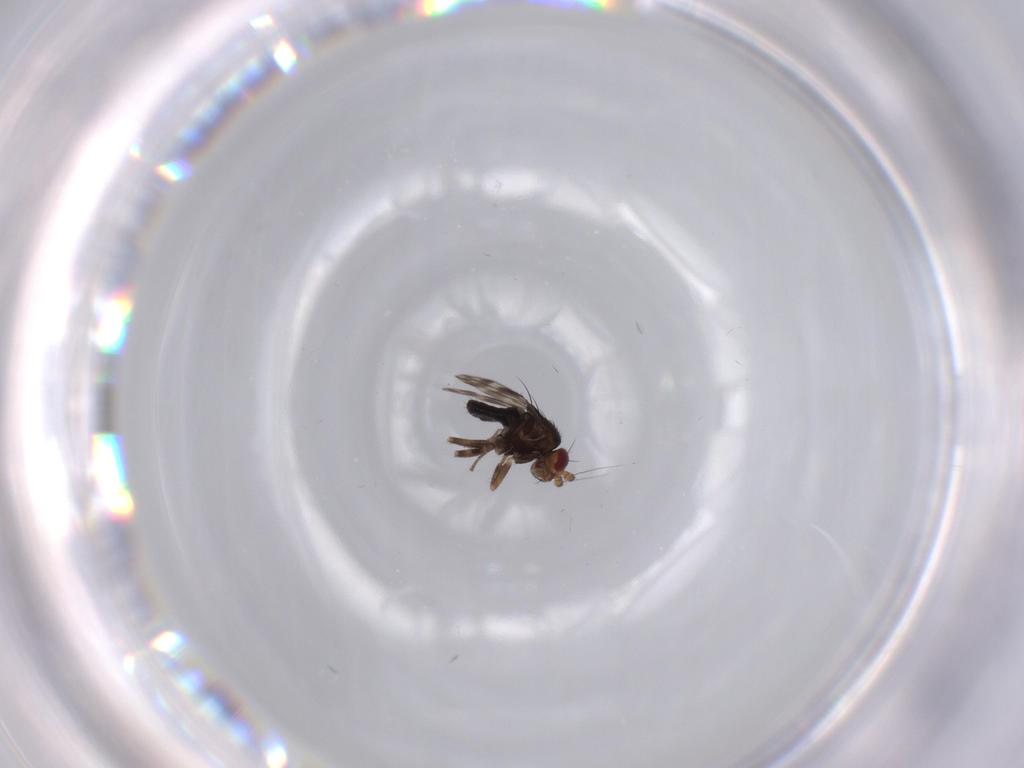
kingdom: Animalia
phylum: Arthropoda
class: Insecta
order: Diptera
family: Sphaeroceridae
